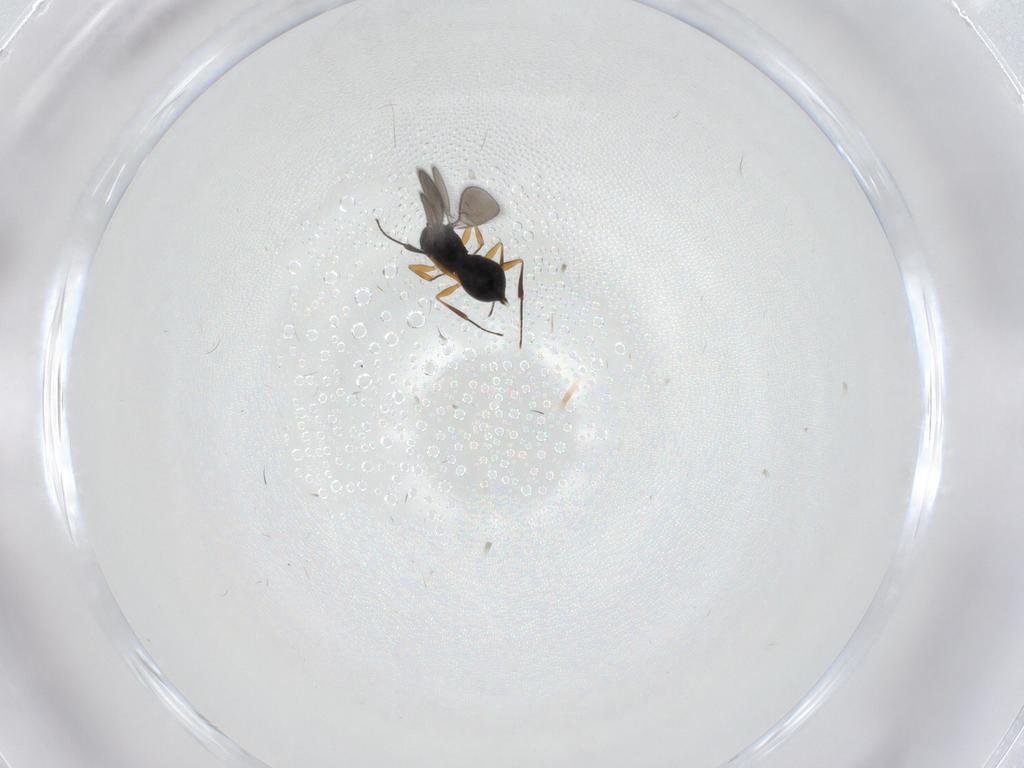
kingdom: Animalia
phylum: Arthropoda
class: Insecta
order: Hymenoptera
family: Scelionidae
